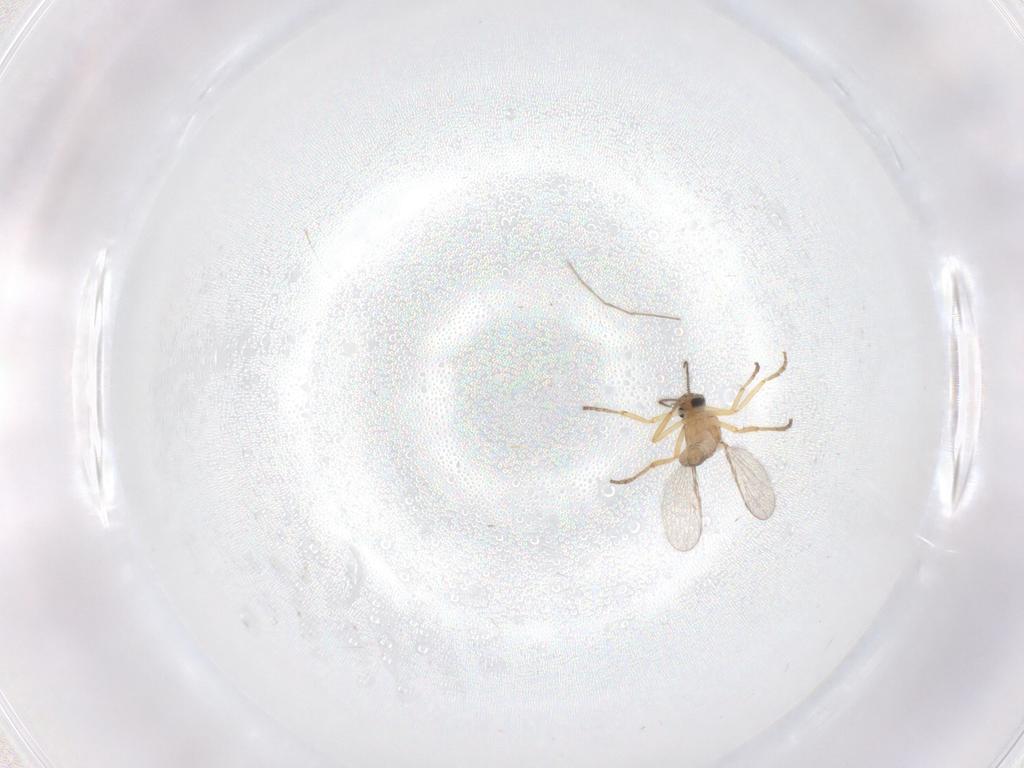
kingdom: Animalia
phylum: Arthropoda
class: Insecta
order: Diptera
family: Ceratopogonidae
